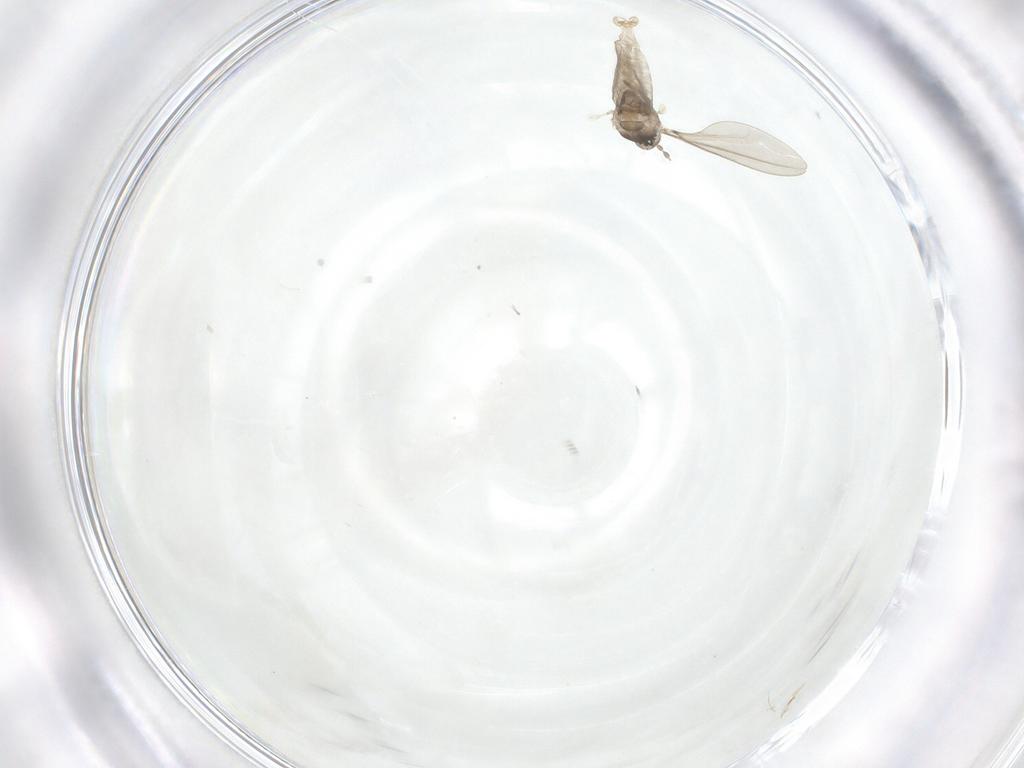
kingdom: Animalia
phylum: Arthropoda
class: Insecta
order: Diptera
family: Cecidomyiidae
